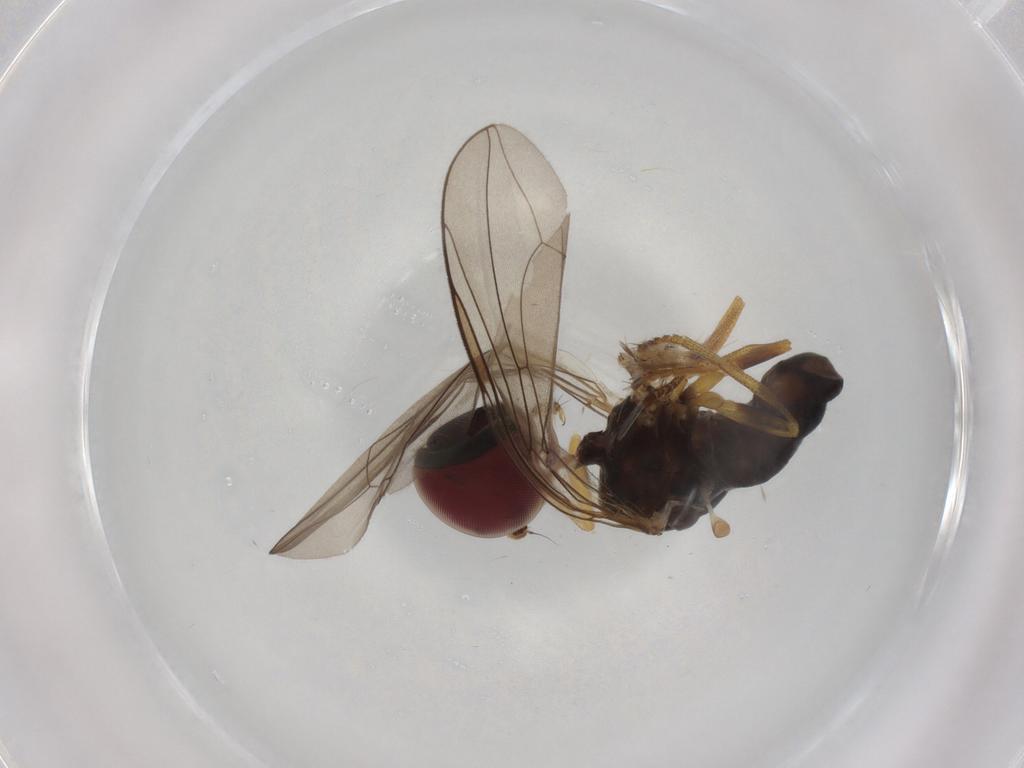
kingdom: Animalia
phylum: Arthropoda
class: Insecta
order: Diptera
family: Pipunculidae
